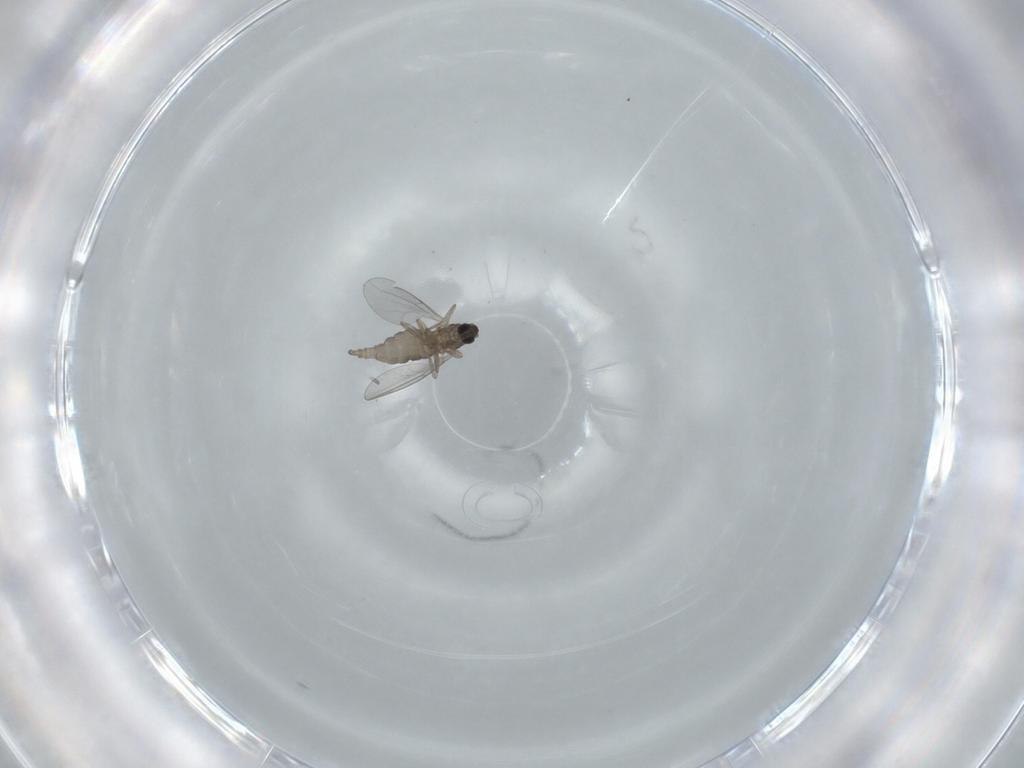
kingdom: Animalia
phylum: Arthropoda
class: Insecta
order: Diptera
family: Cecidomyiidae
